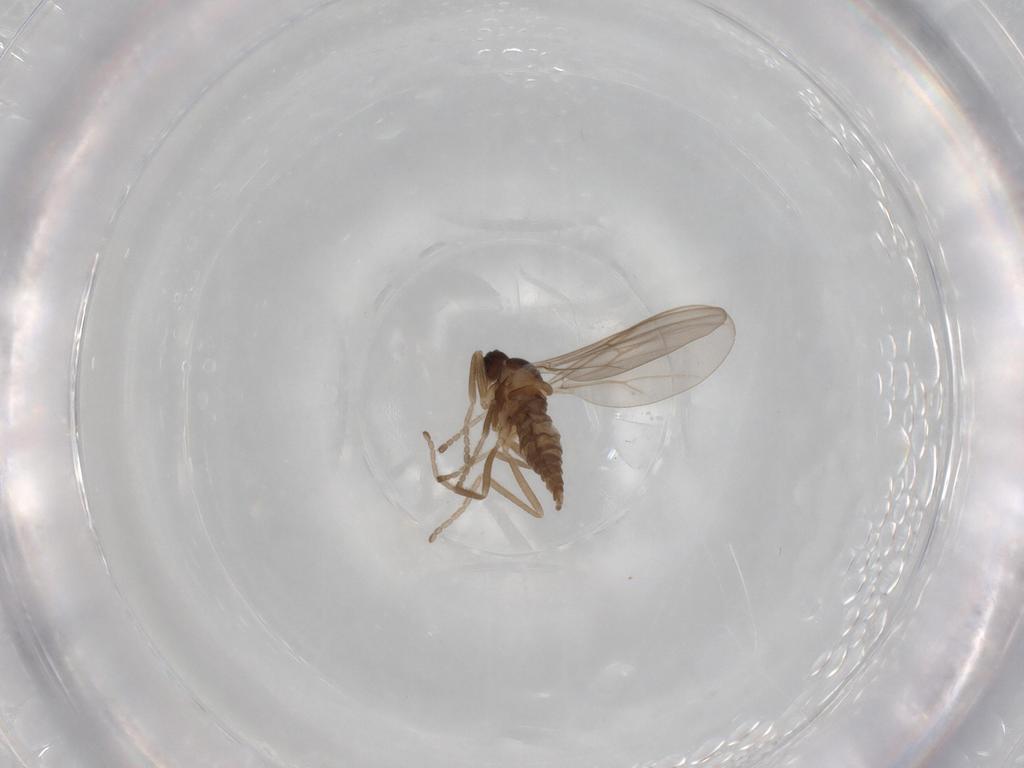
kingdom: Animalia
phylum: Arthropoda
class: Insecta
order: Diptera
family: Cecidomyiidae
